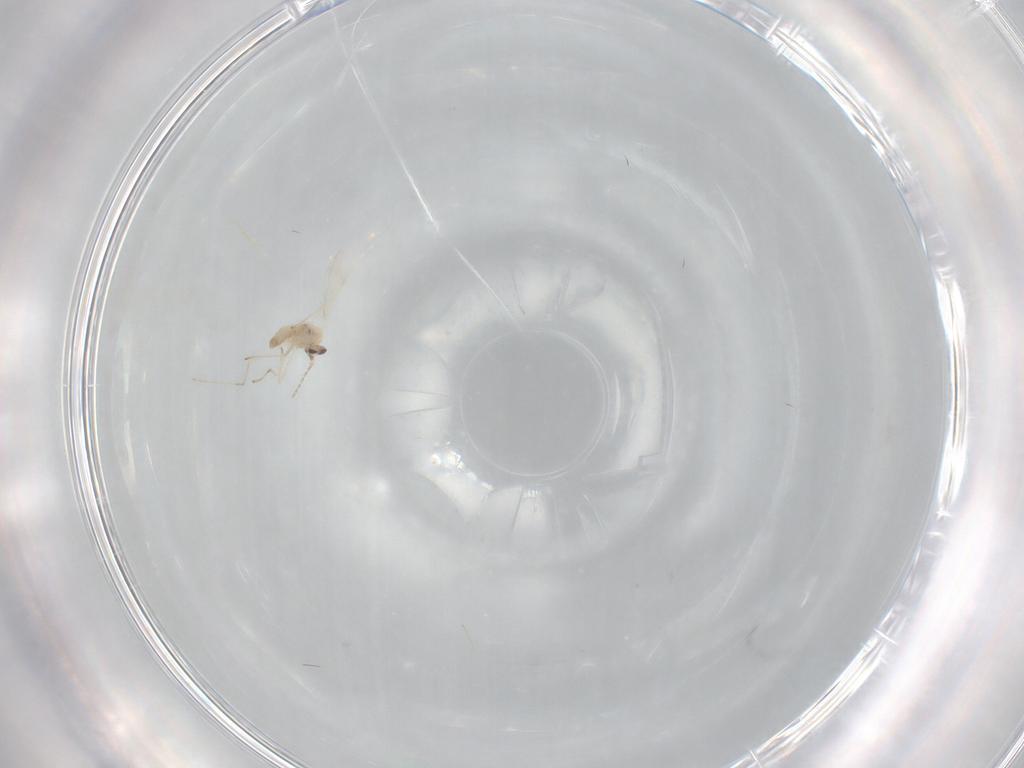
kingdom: Animalia
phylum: Arthropoda
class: Insecta
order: Diptera
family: Cecidomyiidae
